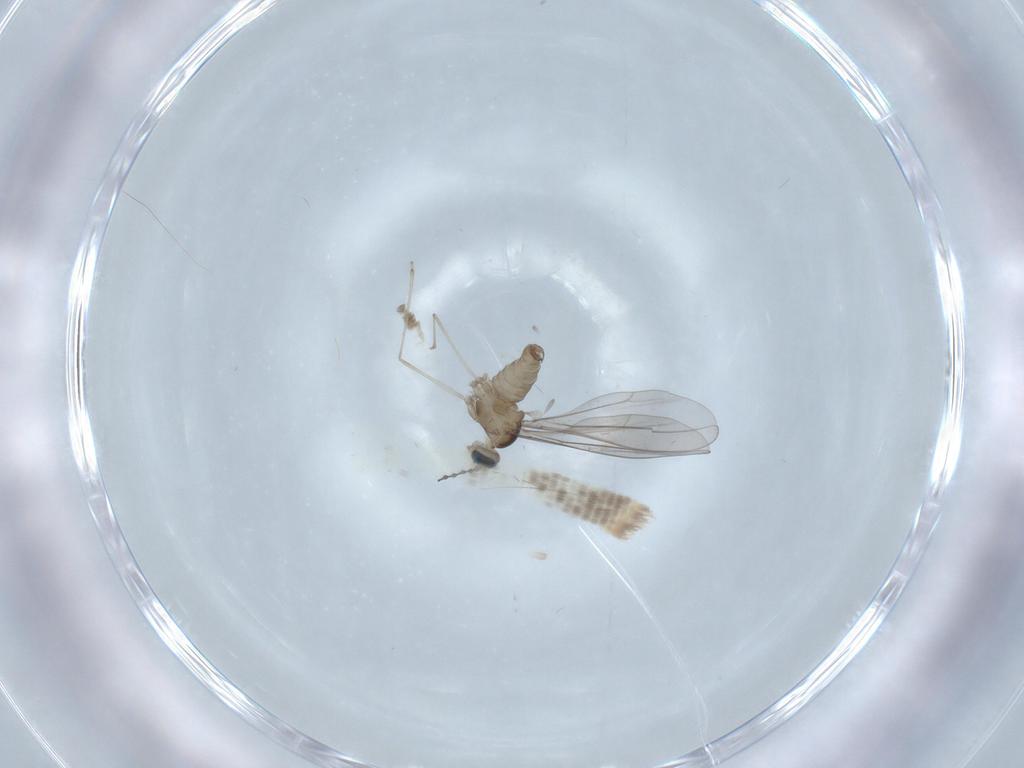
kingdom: Animalia
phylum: Arthropoda
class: Insecta
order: Diptera
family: Cecidomyiidae
